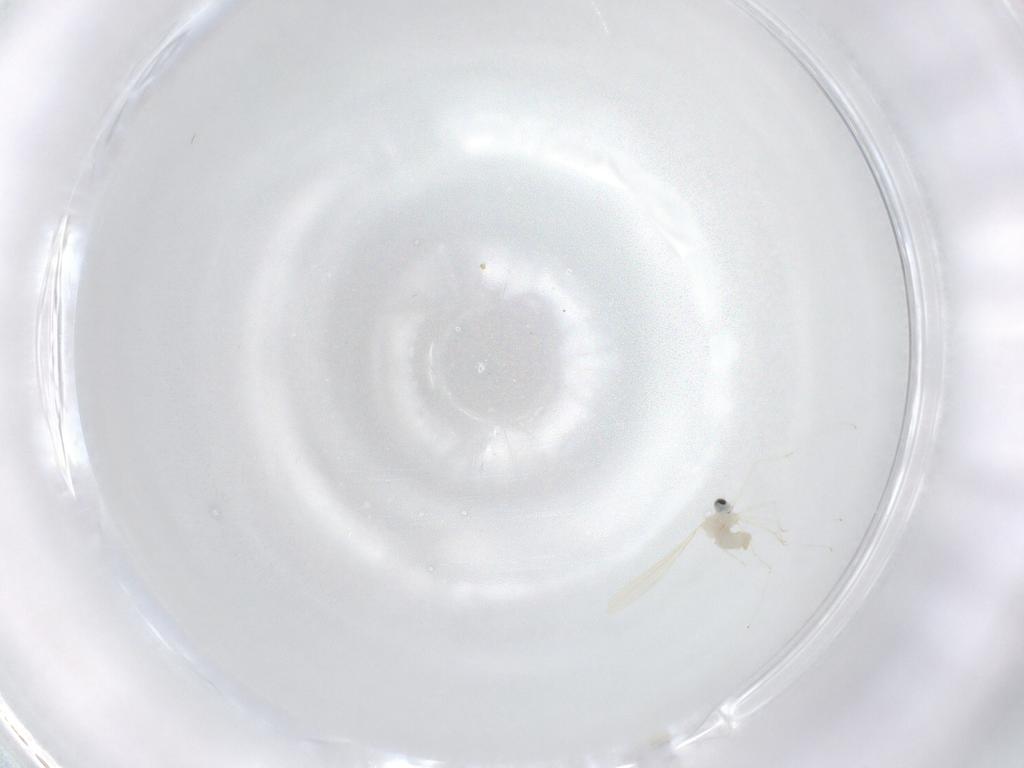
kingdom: Animalia
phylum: Arthropoda
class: Insecta
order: Diptera
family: Cecidomyiidae
